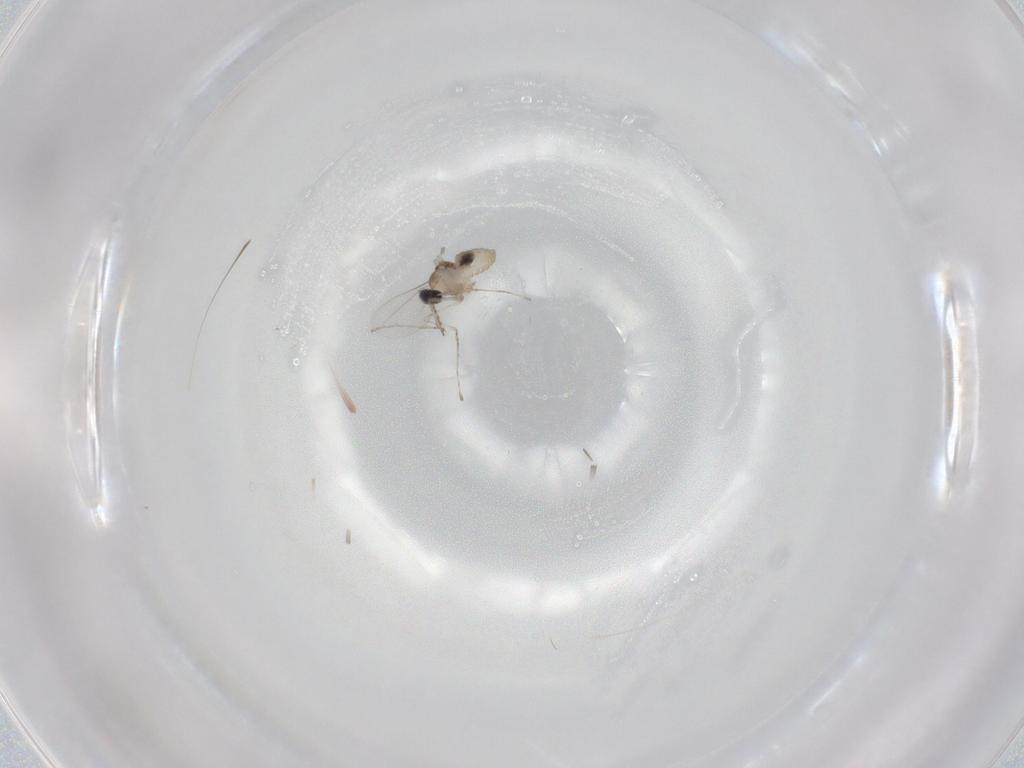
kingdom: Animalia
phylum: Arthropoda
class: Insecta
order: Diptera
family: Cecidomyiidae
